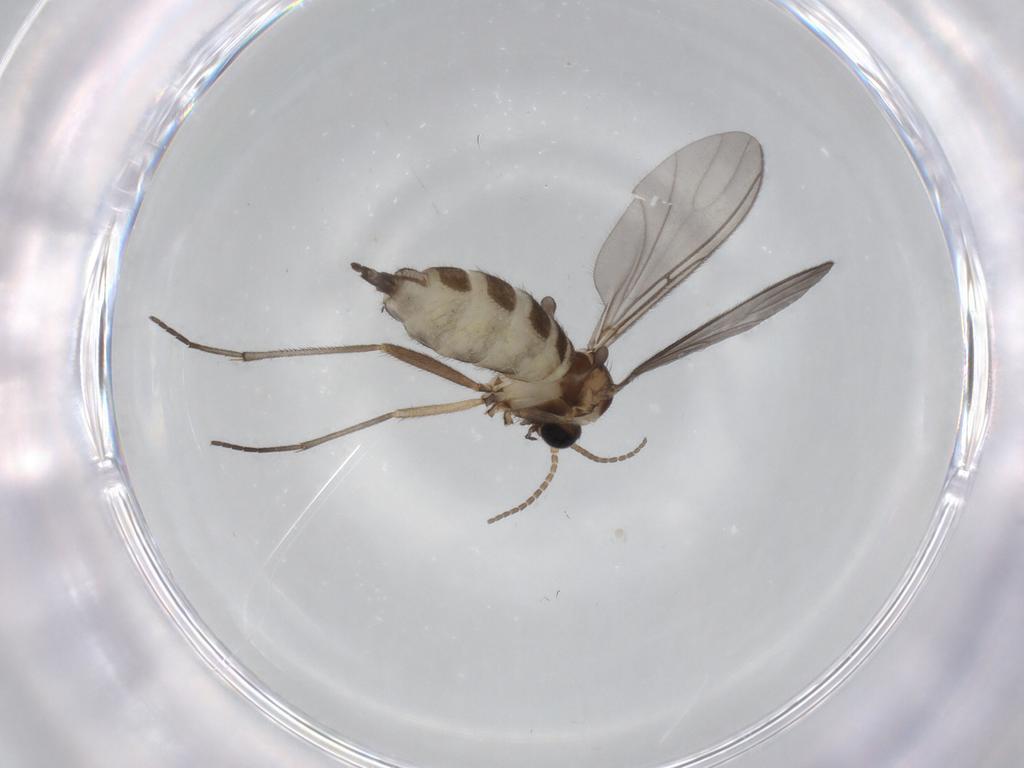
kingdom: Animalia
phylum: Arthropoda
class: Insecta
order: Diptera
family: Sciaridae
